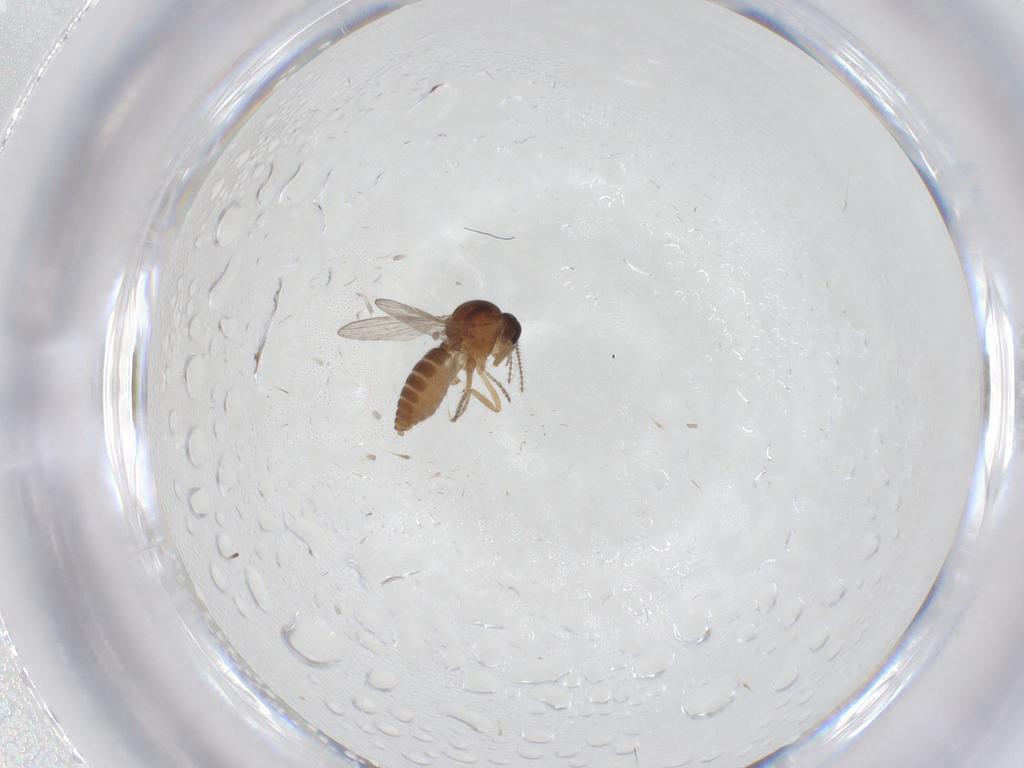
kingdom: Animalia
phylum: Arthropoda
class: Insecta
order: Diptera
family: Ceratopogonidae
